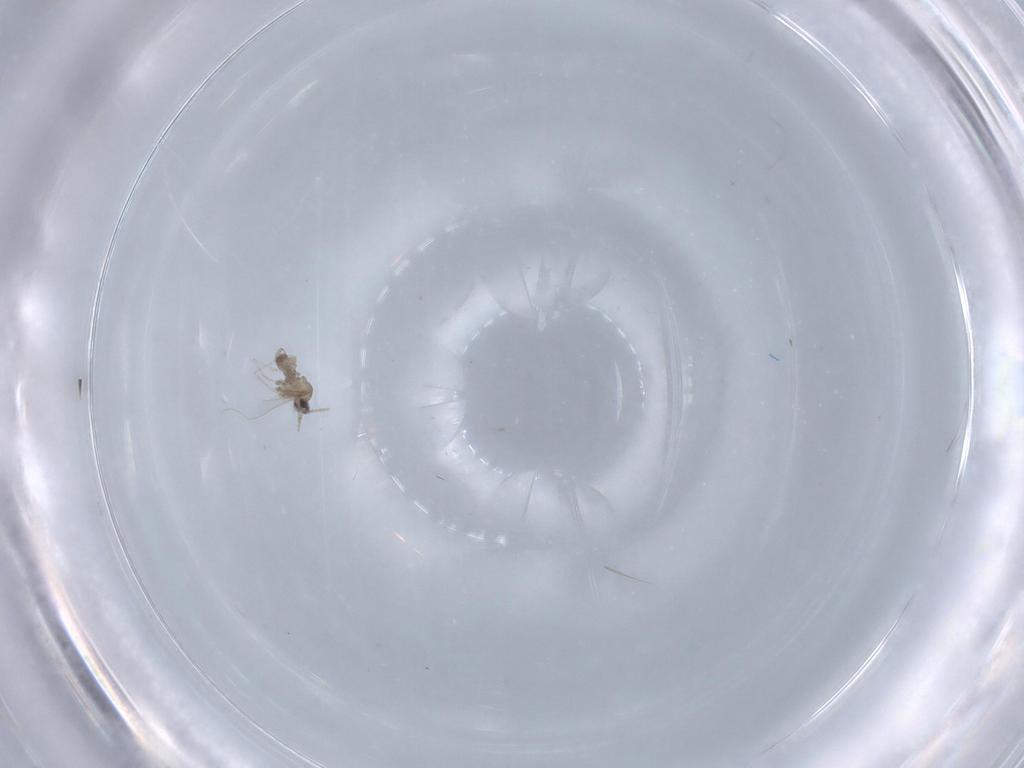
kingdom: Animalia
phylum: Arthropoda
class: Insecta
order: Diptera
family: Cecidomyiidae
